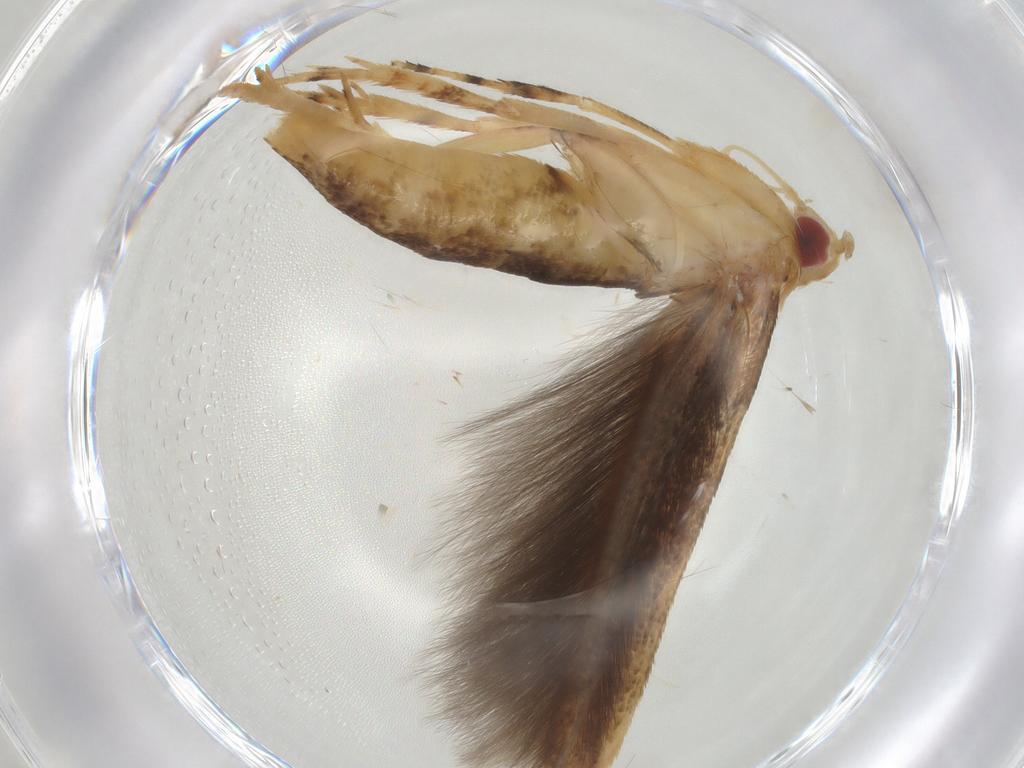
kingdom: Animalia
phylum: Arthropoda
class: Insecta
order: Lepidoptera
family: Cosmopterigidae
